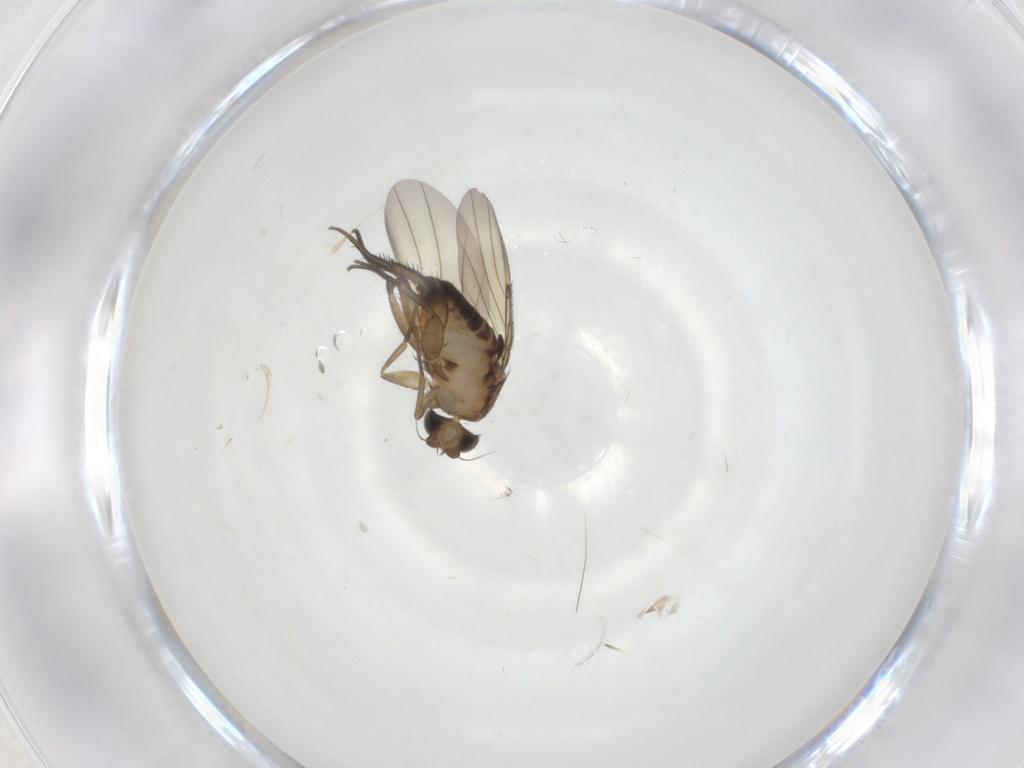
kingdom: Animalia
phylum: Arthropoda
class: Insecta
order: Diptera
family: Phoridae
